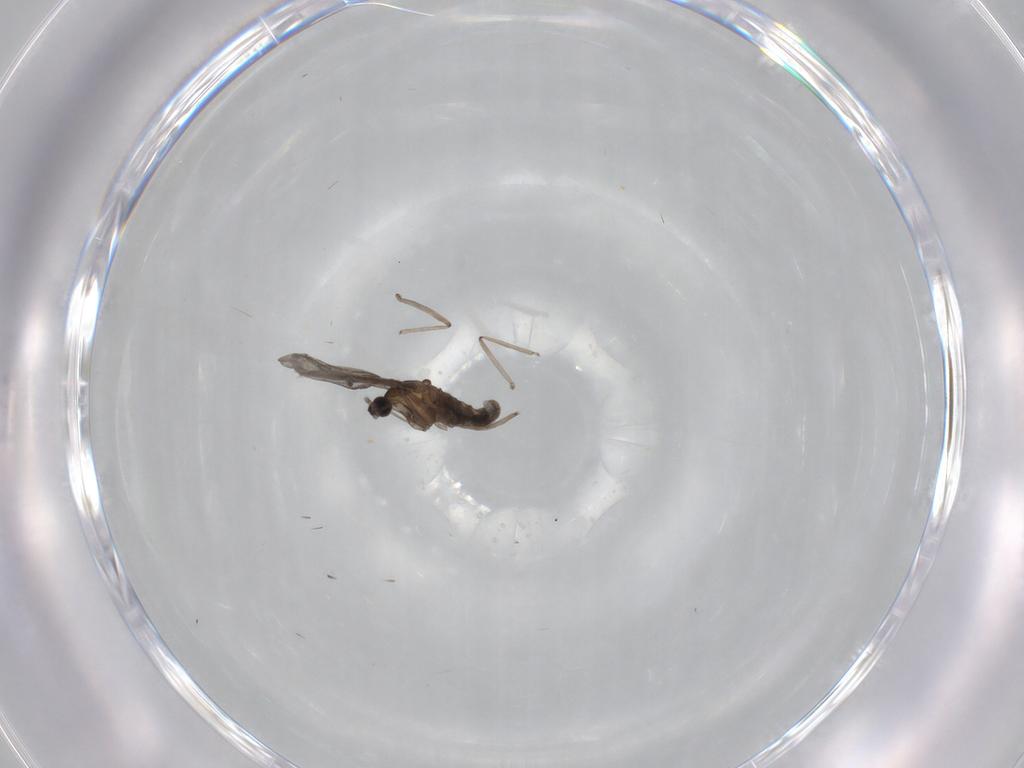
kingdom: Animalia
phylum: Arthropoda
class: Insecta
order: Diptera
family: Cecidomyiidae
